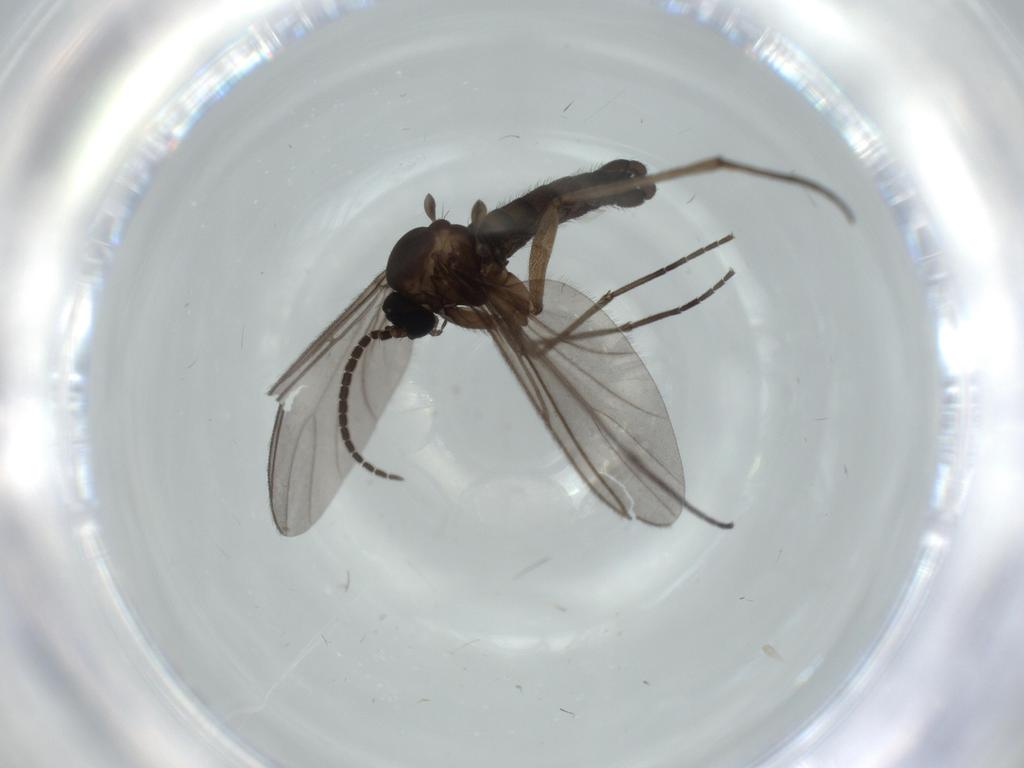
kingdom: Animalia
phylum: Arthropoda
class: Insecta
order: Diptera
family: Sciaridae
